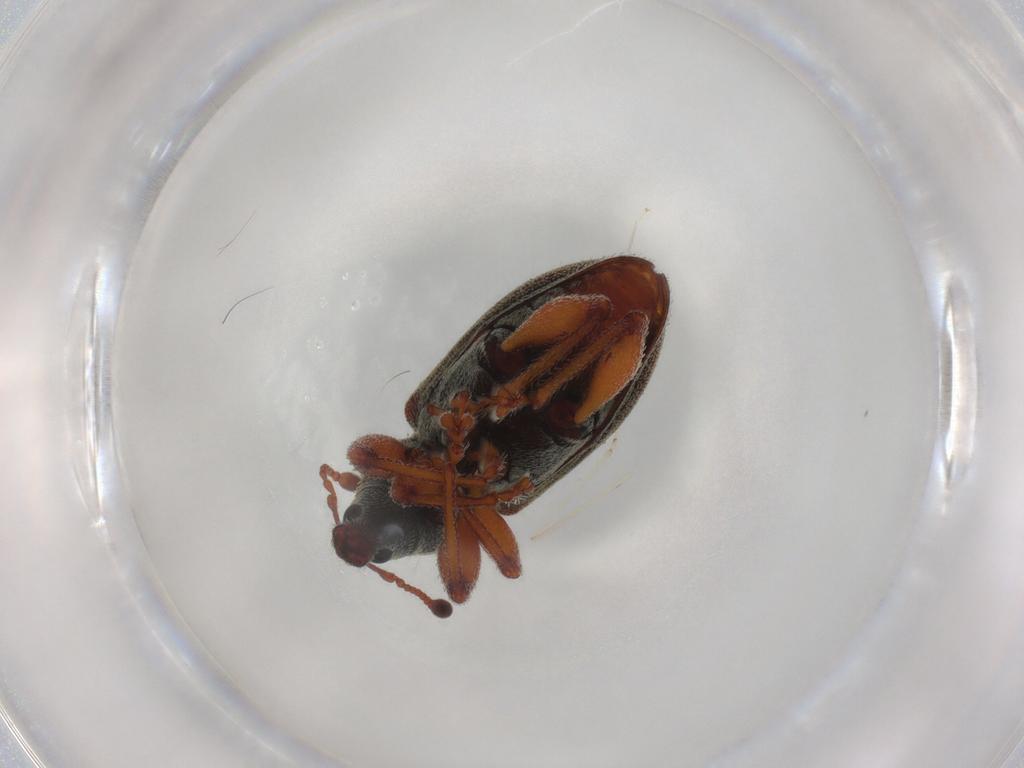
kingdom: Animalia
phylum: Arthropoda
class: Insecta
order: Coleoptera
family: Curculionidae
